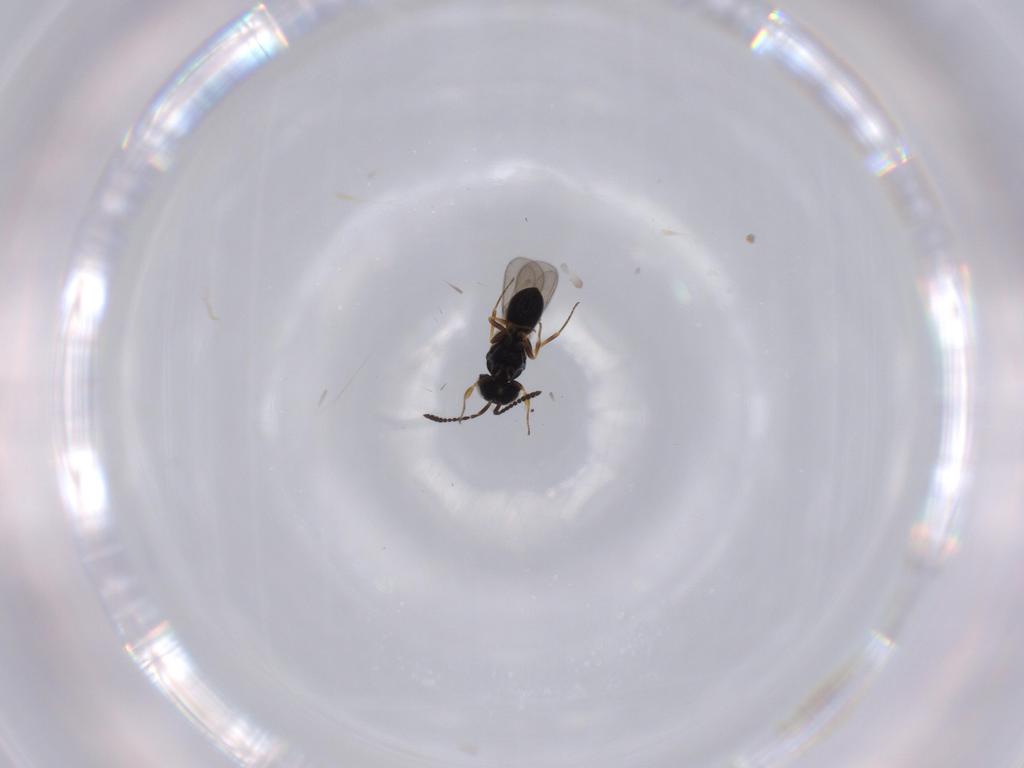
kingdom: Animalia
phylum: Arthropoda
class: Insecta
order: Hymenoptera
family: Scelionidae
